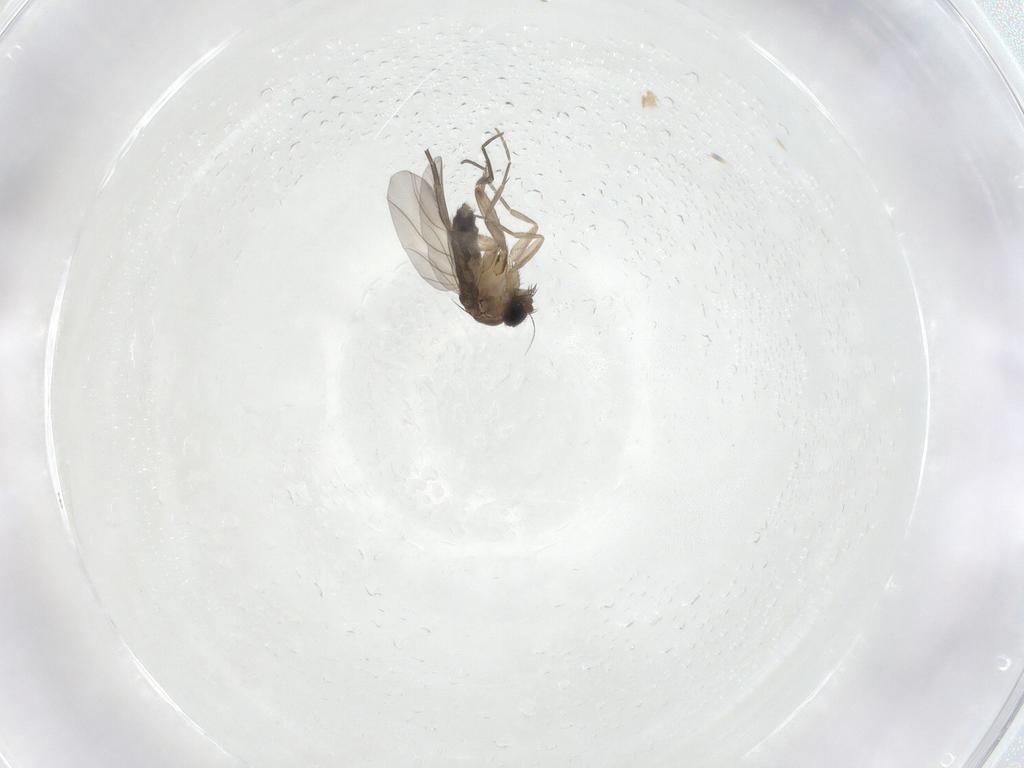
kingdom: Animalia
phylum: Arthropoda
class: Insecta
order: Diptera
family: Phoridae
